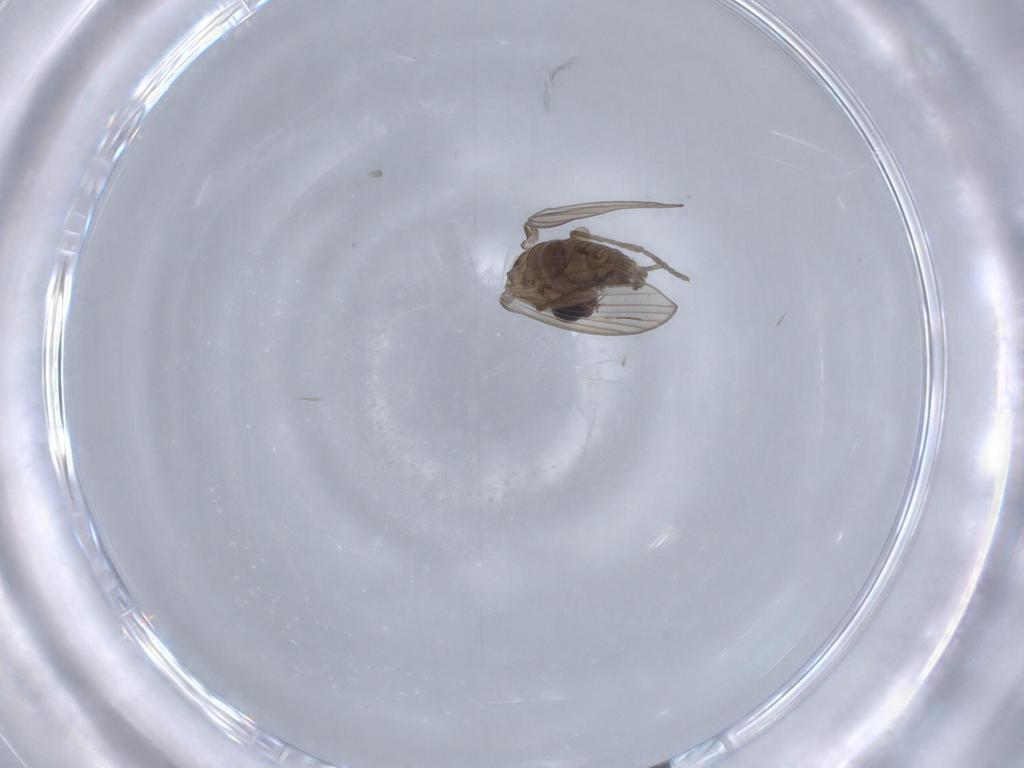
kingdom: Animalia
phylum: Arthropoda
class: Insecta
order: Diptera
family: Psychodidae
